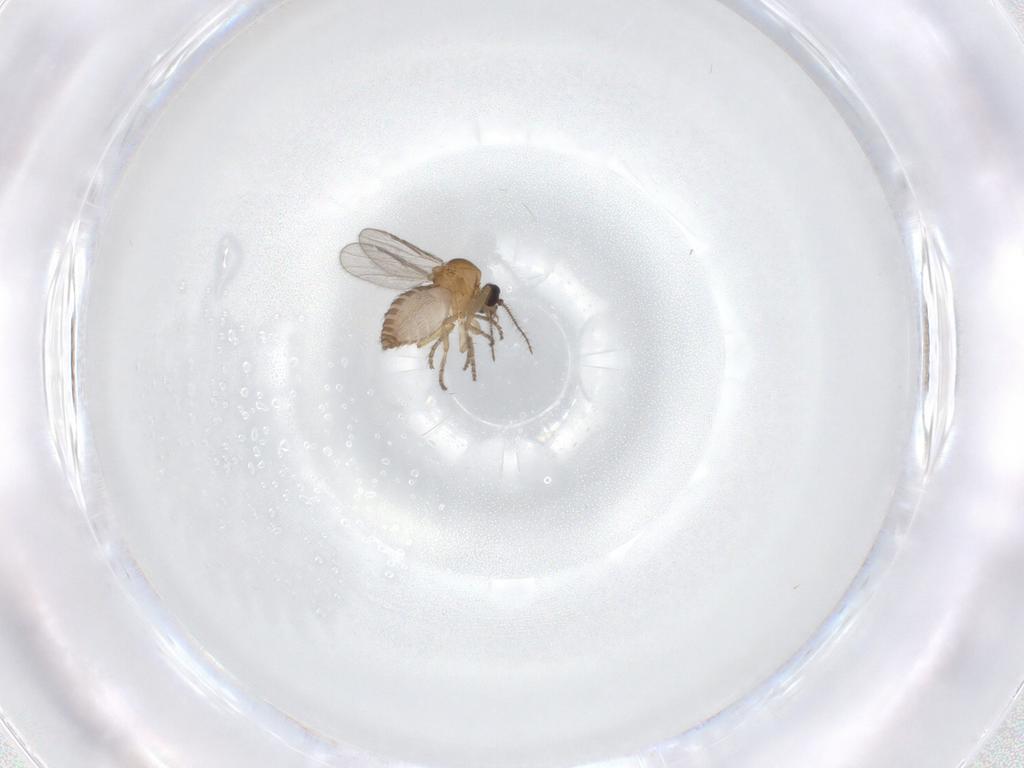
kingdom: Animalia
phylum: Arthropoda
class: Insecta
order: Diptera
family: Ceratopogonidae
